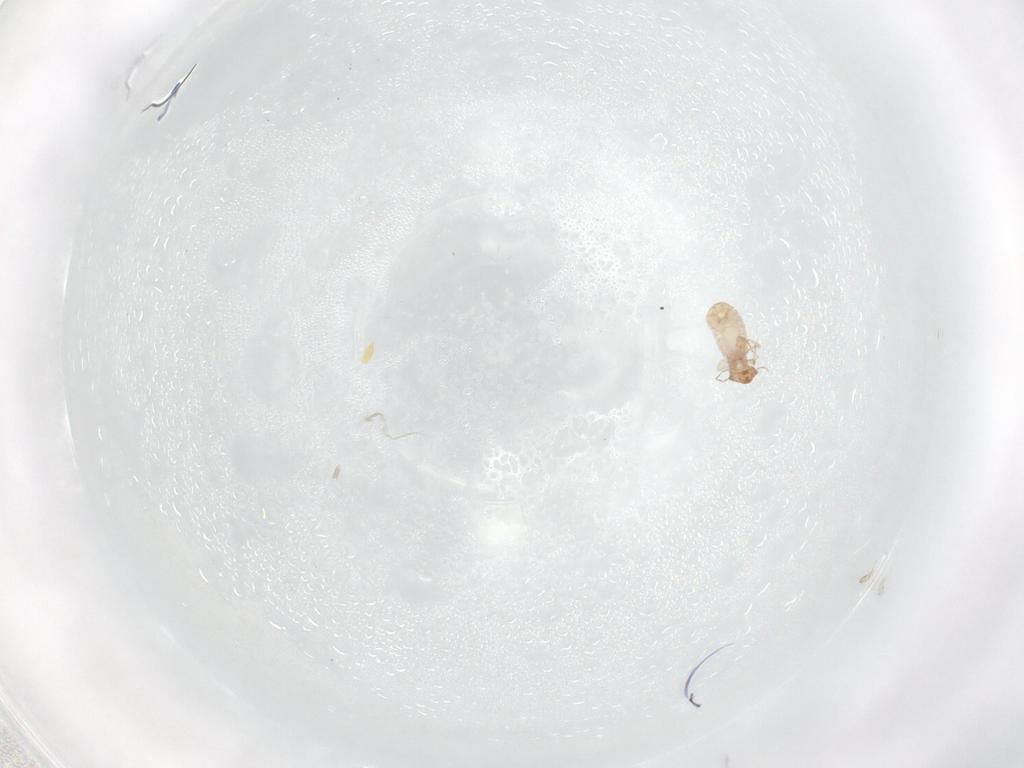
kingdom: Animalia
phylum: Arthropoda
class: Insecta
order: Psocodea
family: Liposcelididae
